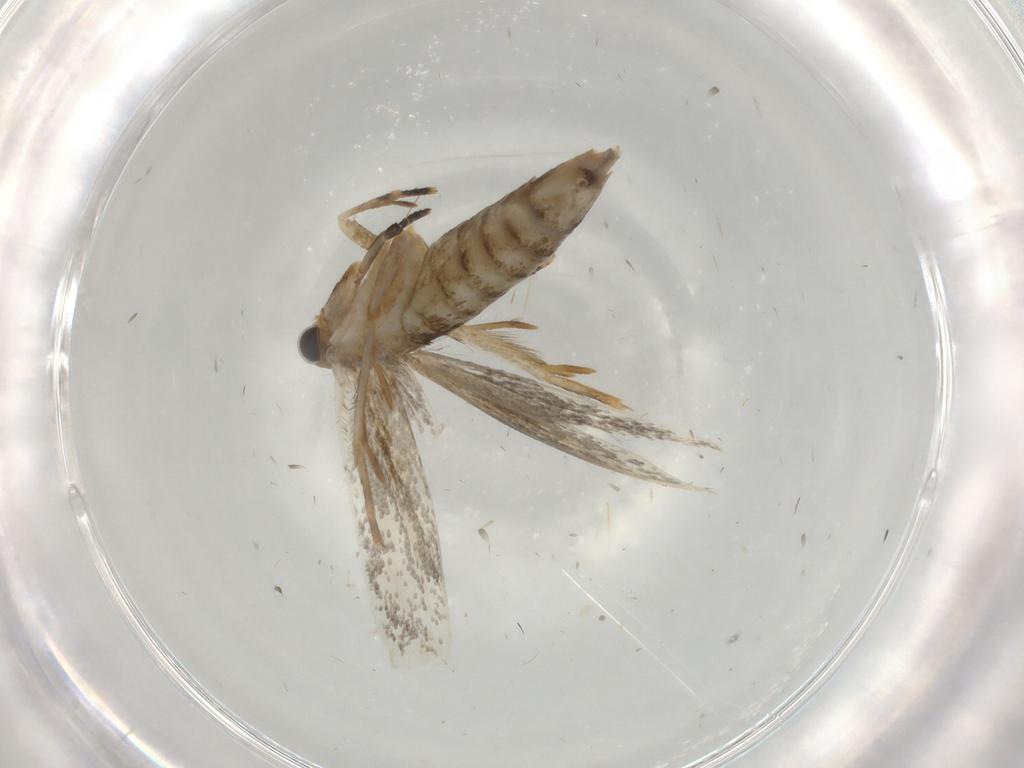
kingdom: Animalia
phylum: Arthropoda
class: Insecta
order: Lepidoptera
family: Tineidae
